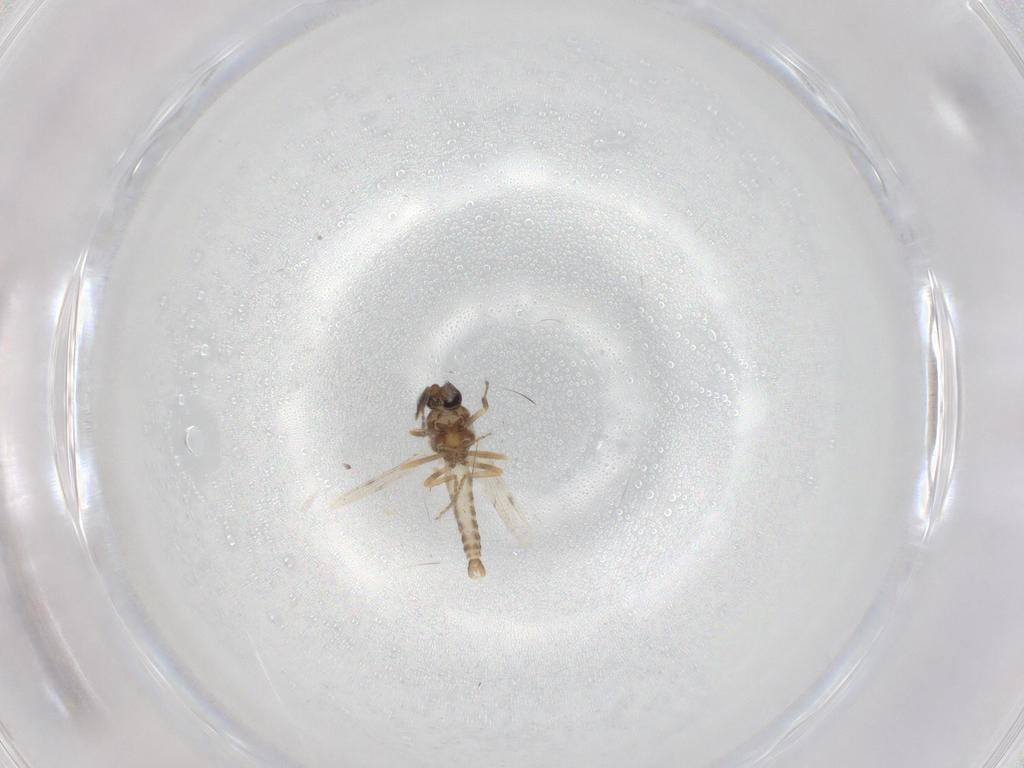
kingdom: Animalia
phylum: Arthropoda
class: Insecta
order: Diptera
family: Ceratopogonidae
